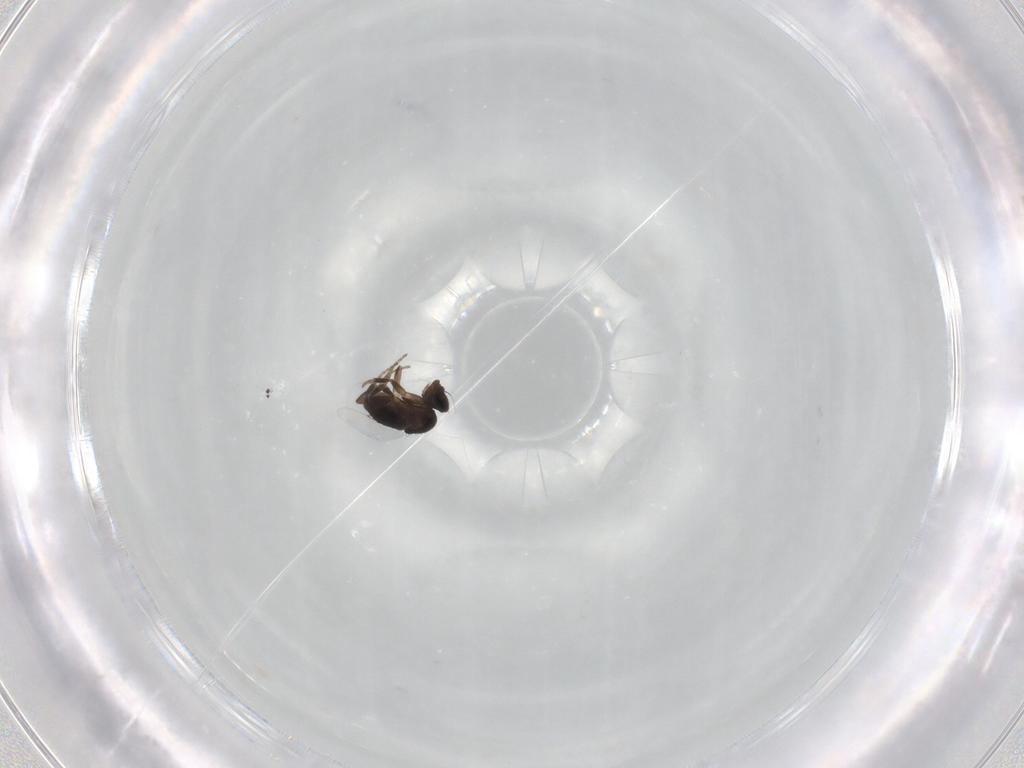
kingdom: Animalia
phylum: Arthropoda
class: Insecta
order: Diptera
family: Phoridae
